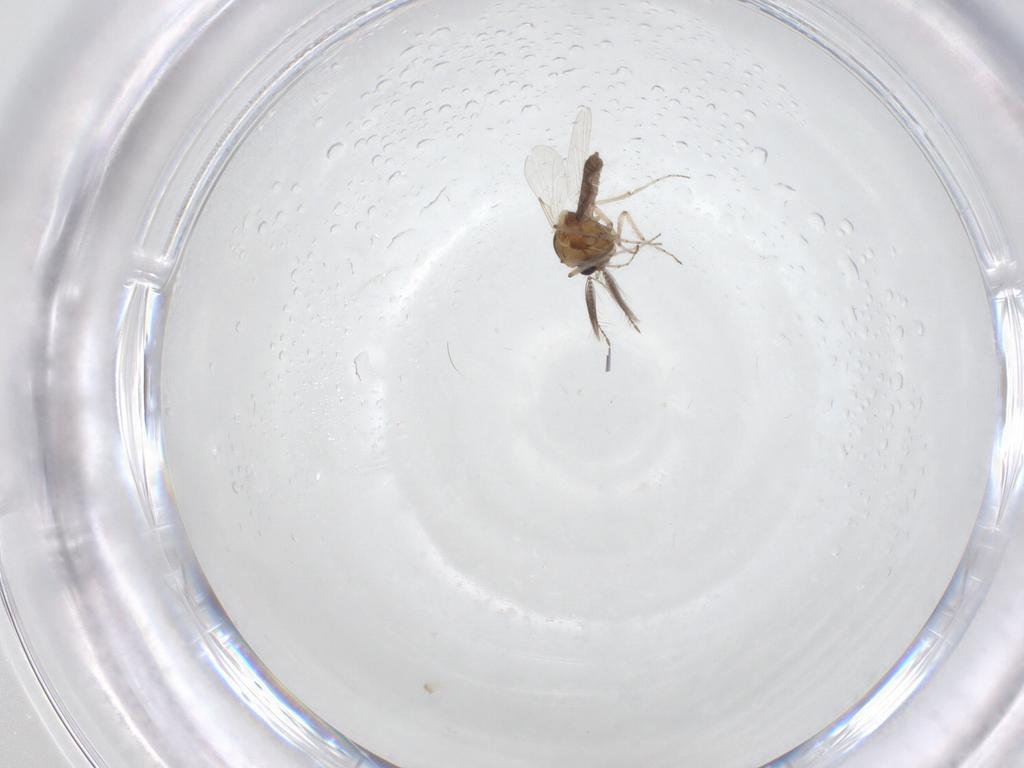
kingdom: Animalia
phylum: Arthropoda
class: Insecta
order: Diptera
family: Ceratopogonidae
